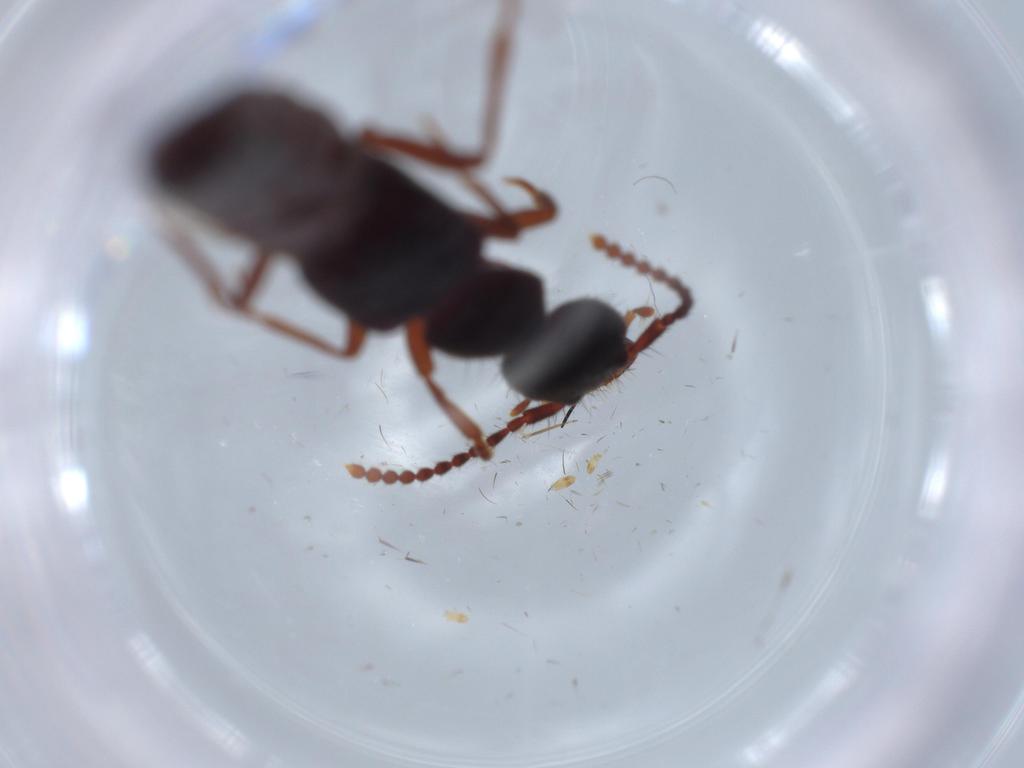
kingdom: Animalia
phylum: Arthropoda
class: Insecta
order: Coleoptera
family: Staphylinidae
